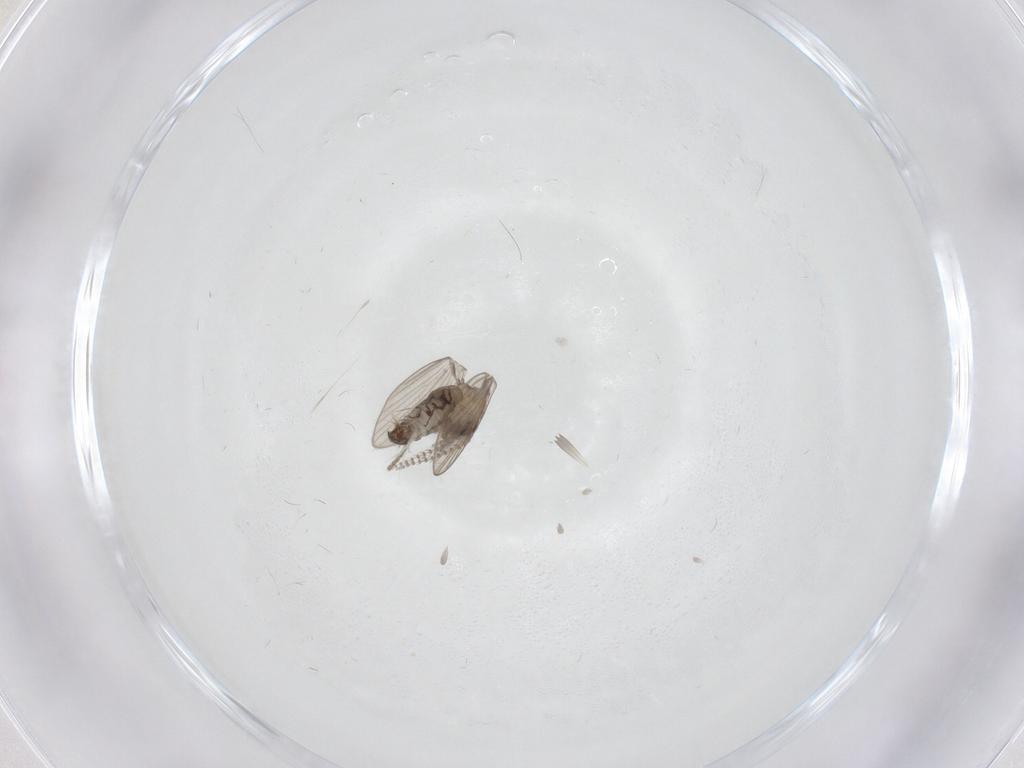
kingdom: Animalia
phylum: Arthropoda
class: Insecta
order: Diptera
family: Psychodidae
